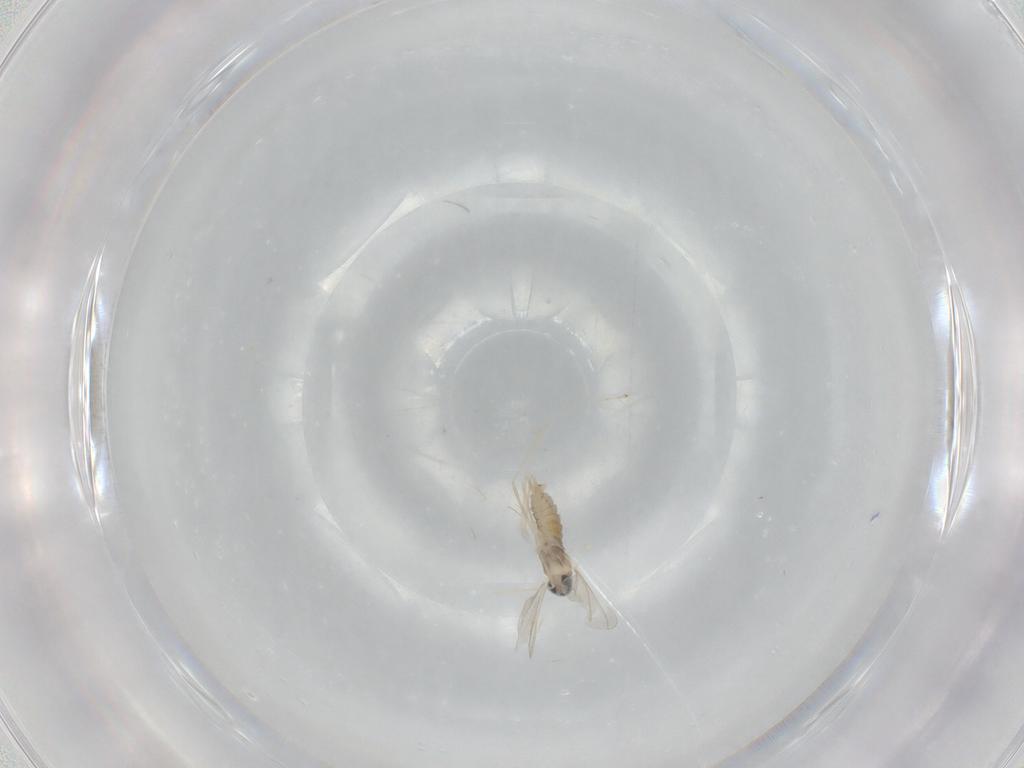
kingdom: Animalia
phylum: Arthropoda
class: Insecta
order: Diptera
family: Cecidomyiidae
